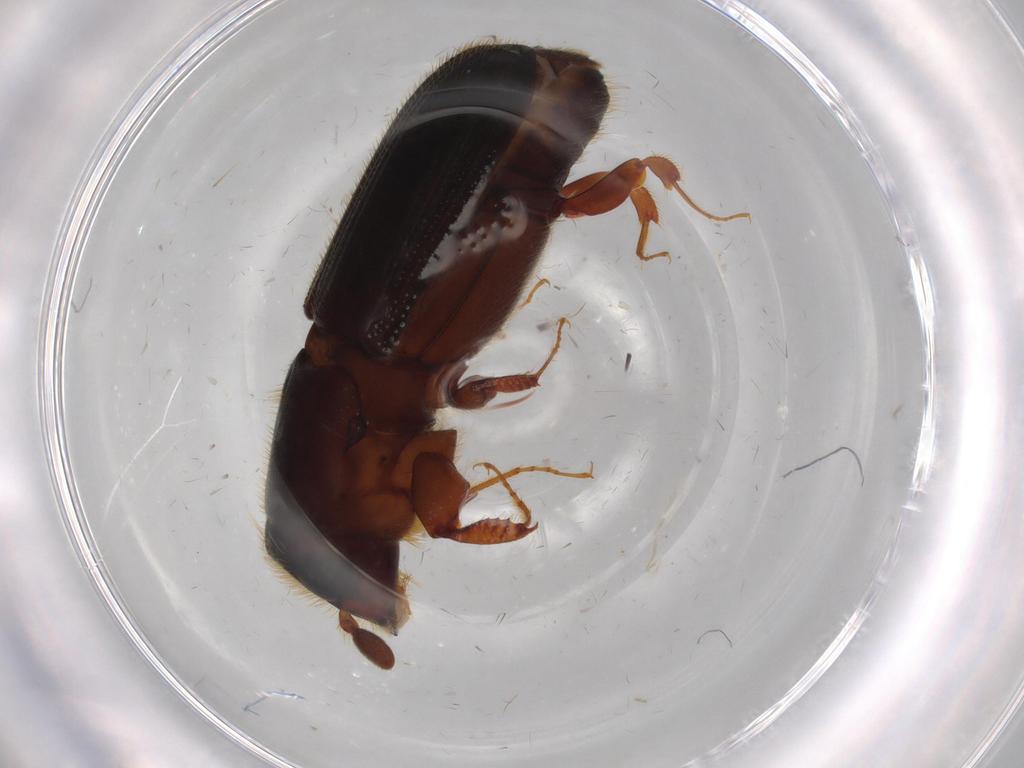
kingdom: Animalia
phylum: Arthropoda
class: Insecta
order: Coleoptera
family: Curculionidae
